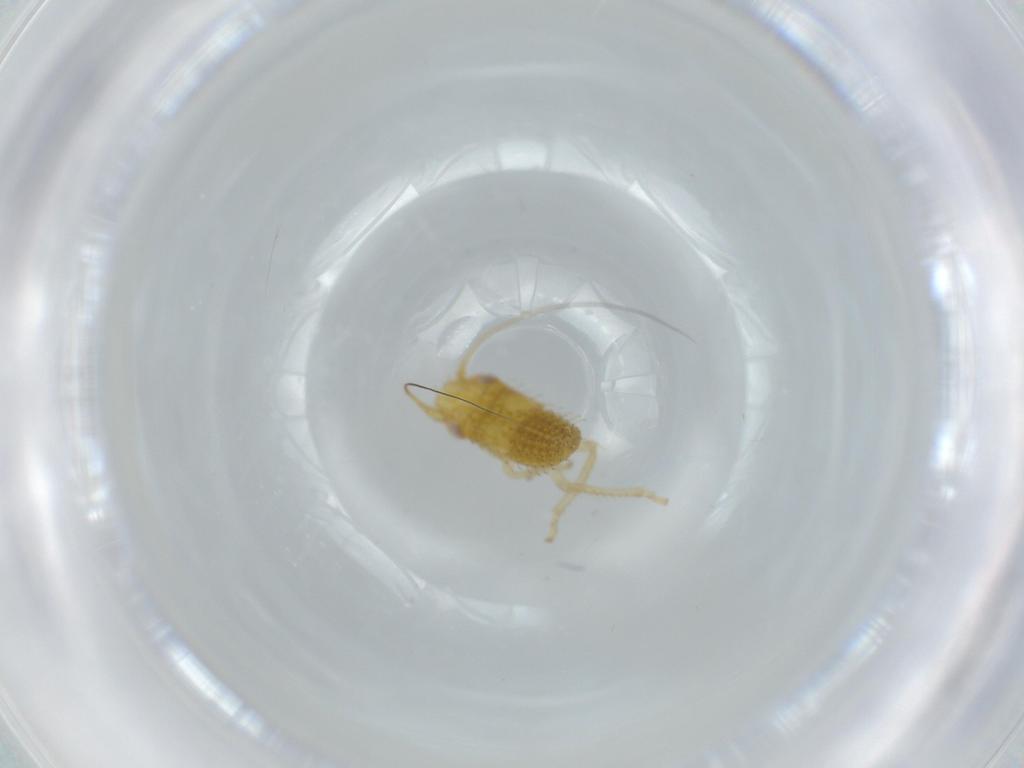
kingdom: Animalia
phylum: Arthropoda
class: Insecta
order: Hemiptera
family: Cicadellidae
